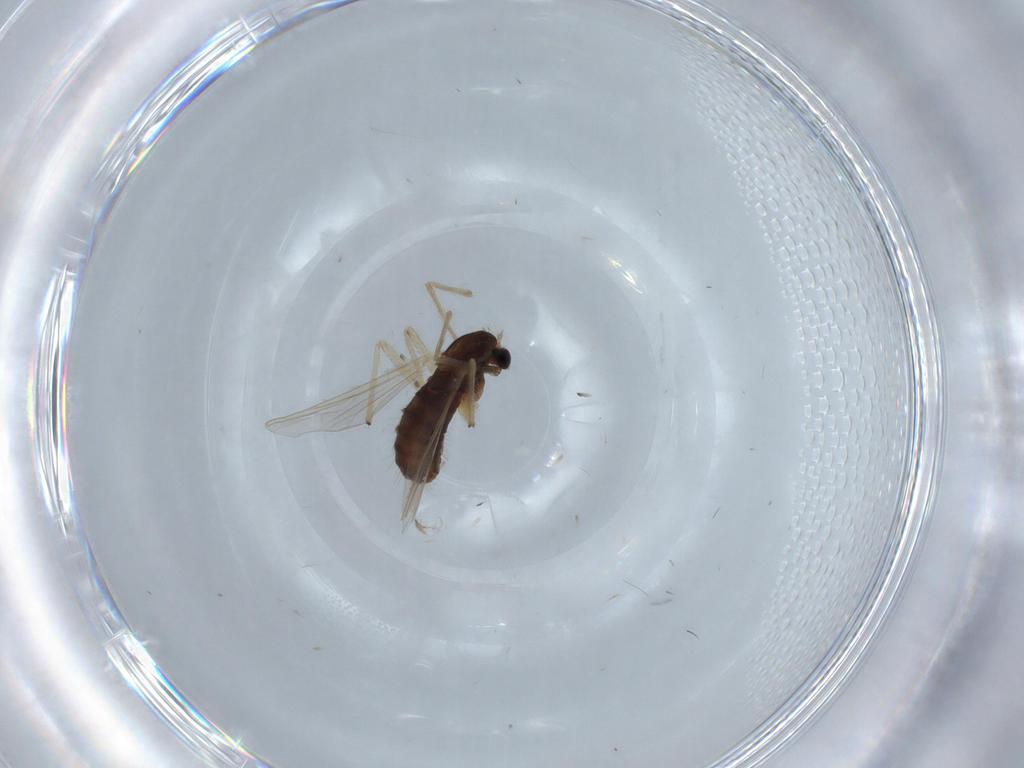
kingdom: Animalia
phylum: Arthropoda
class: Insecta
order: Diptera
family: Chironomidae
